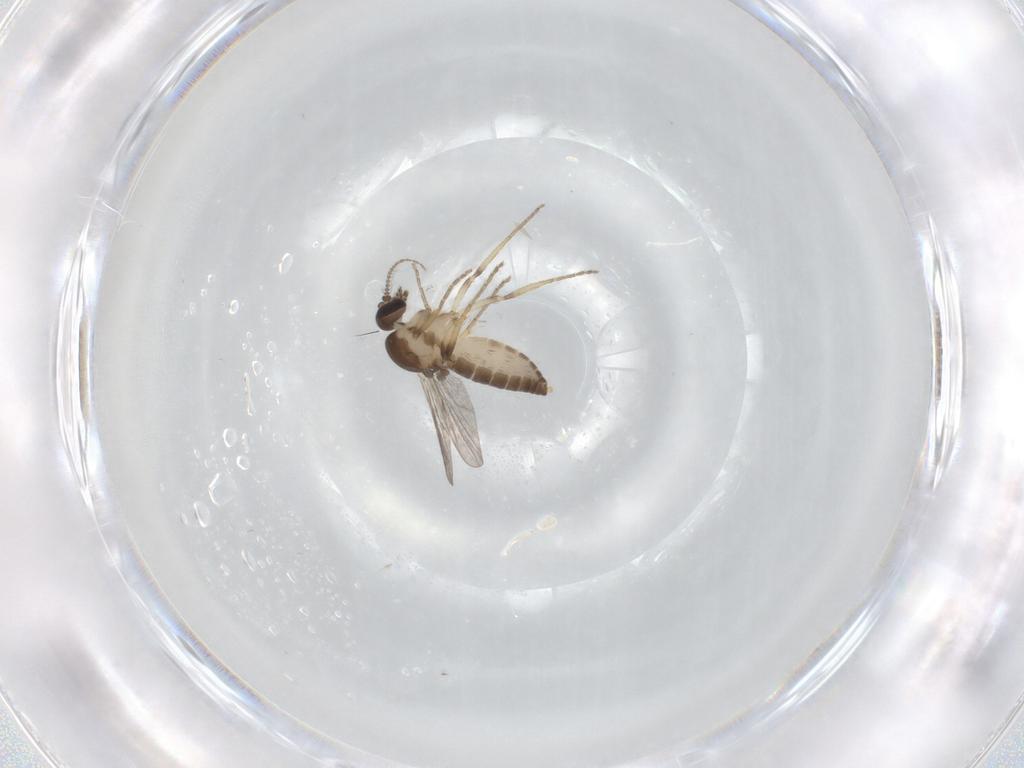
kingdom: Animalia
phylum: Arthropoda
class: Insecta
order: Diptera
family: Ceratopogonidae
